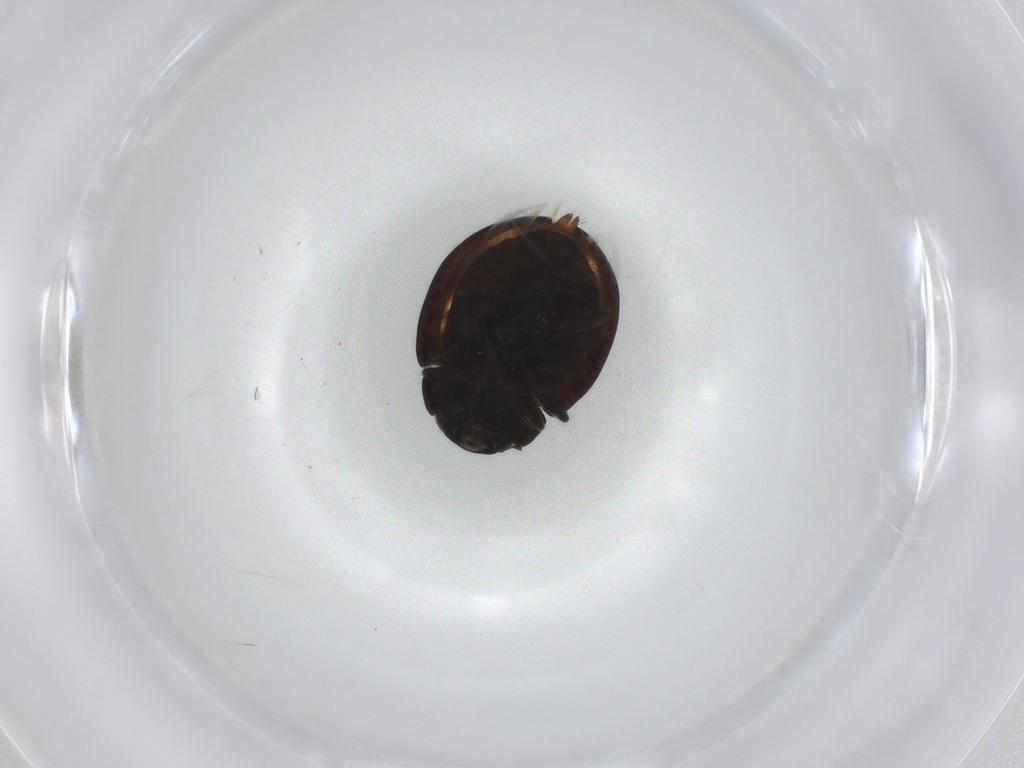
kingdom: Animalia
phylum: Arthropoda
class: Insecta
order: Coleoptera
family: Coccinellidae
